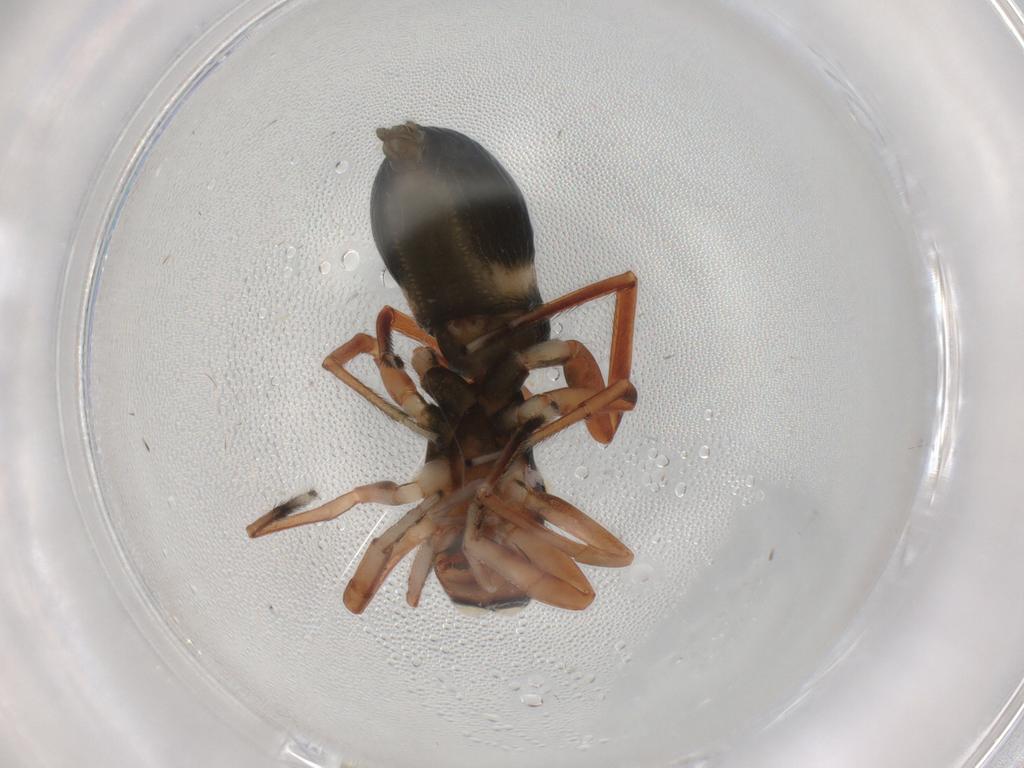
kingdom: Animalia
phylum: Arthropoda
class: Arachnida
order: Araneae
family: Salticidae
